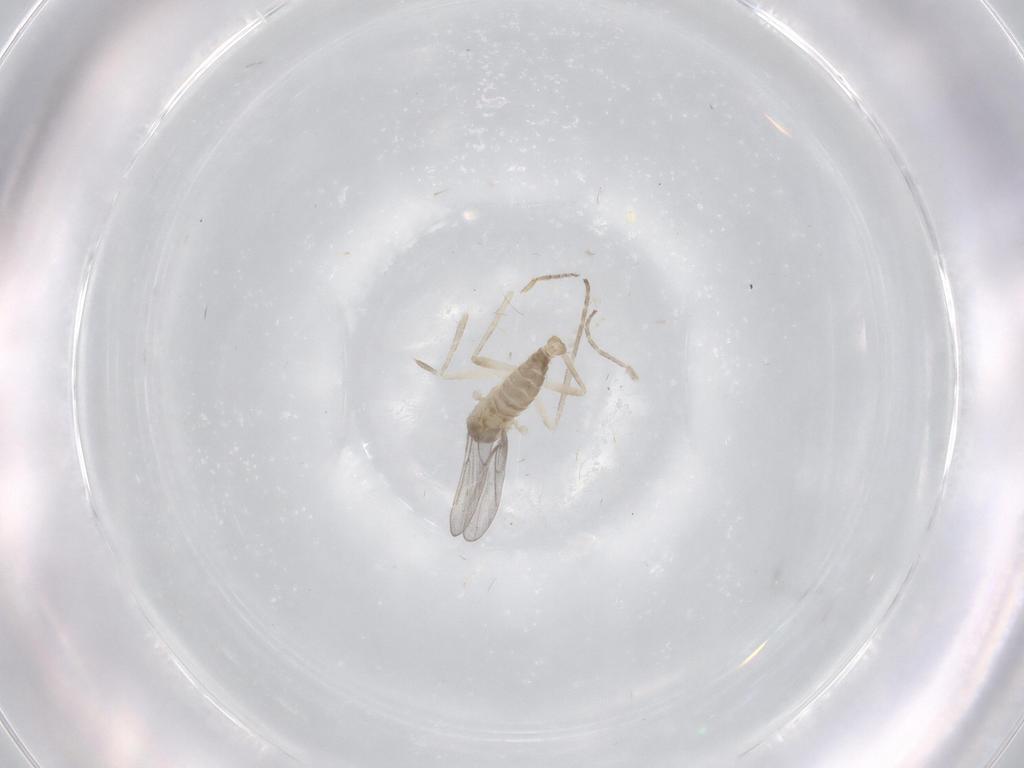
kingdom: Animalia
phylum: Arthropoda
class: Insecta
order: Diptera
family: Cecidomyiidae
